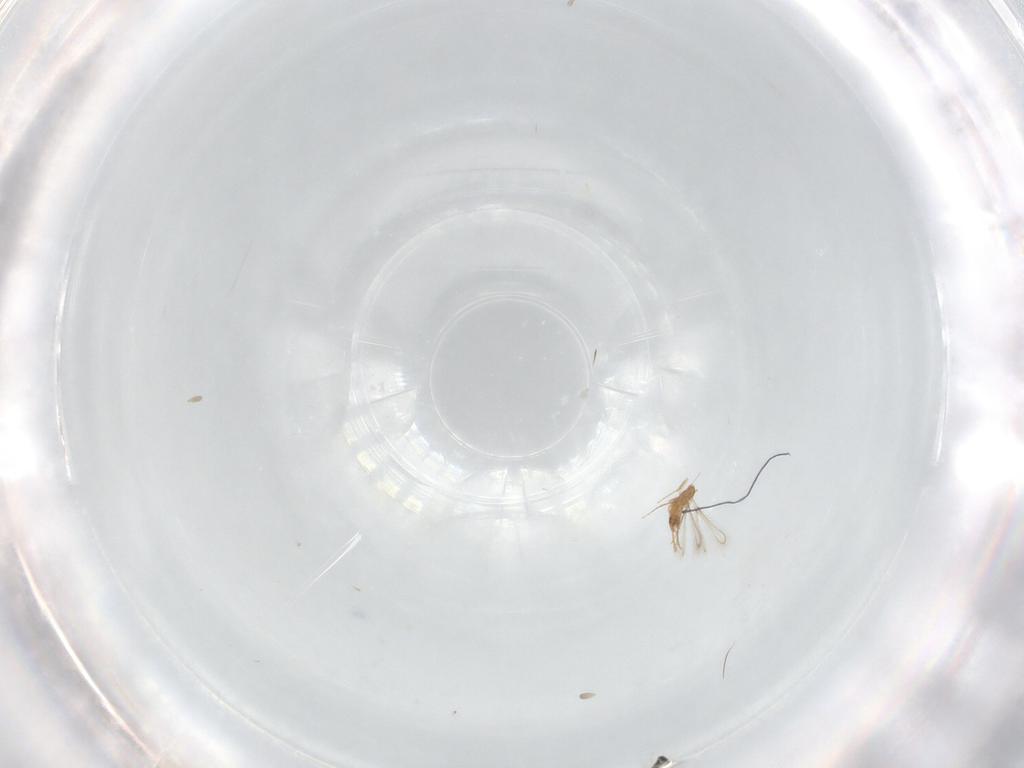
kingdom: Animalia
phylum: Arthropoda
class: Insecta
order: Hymenoptera
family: Mymaridae
